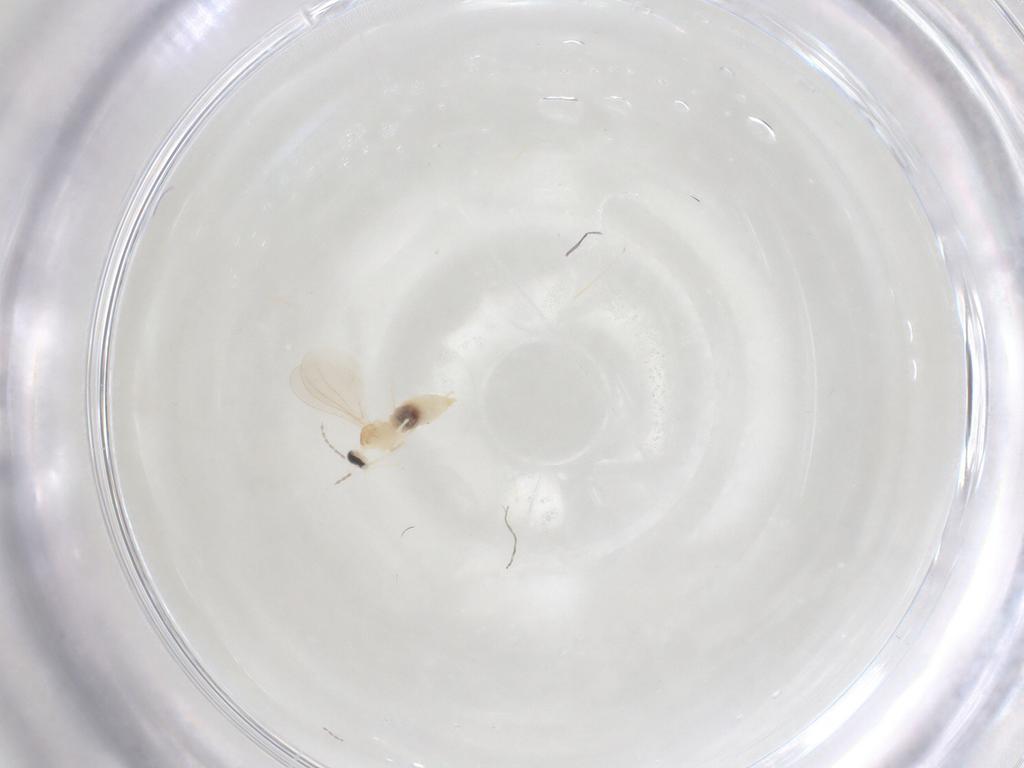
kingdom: Animalia
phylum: Arthropoda
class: Insecta
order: Diptera
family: Cecidomyiidae
